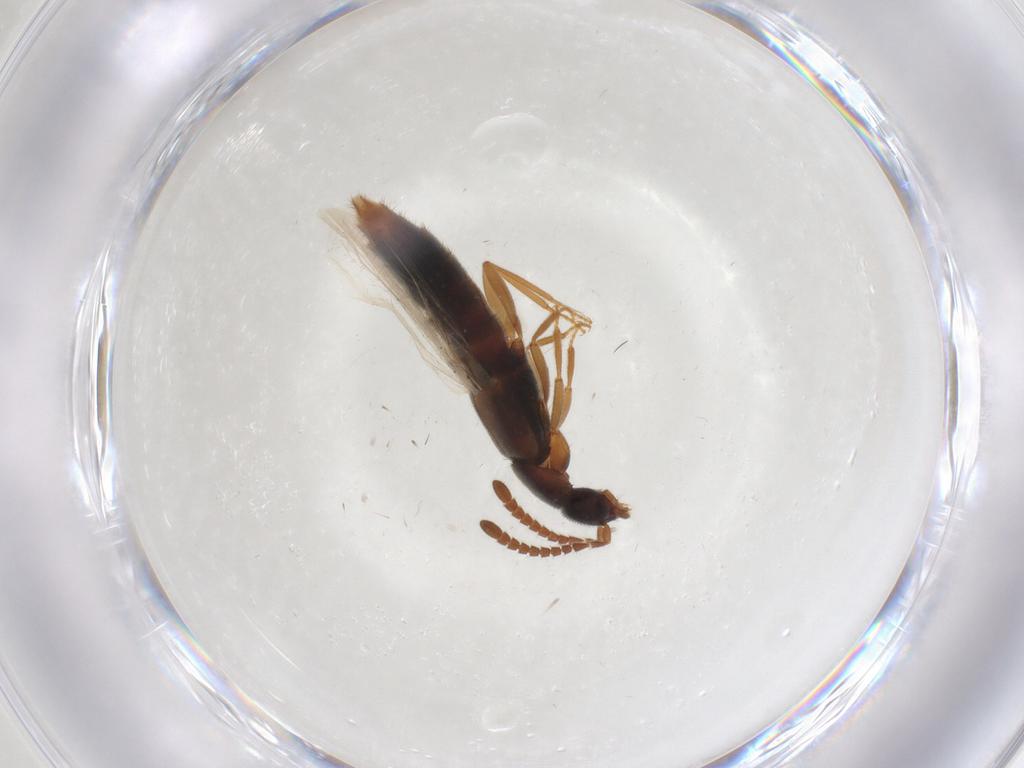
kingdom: Animalia
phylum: Arthropoda
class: Insecta
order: Coleoptera
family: Staphylinidae
